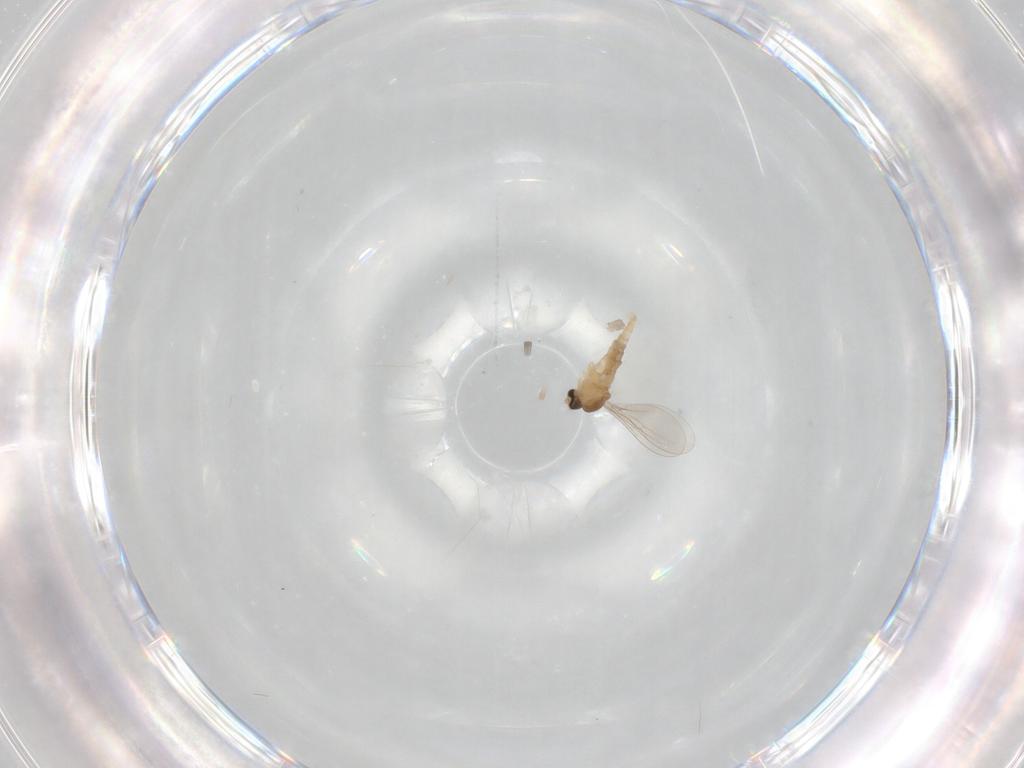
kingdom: Animalia
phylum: Arthropoda
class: Insecta
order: Diptera
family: Cecidomyiidae
